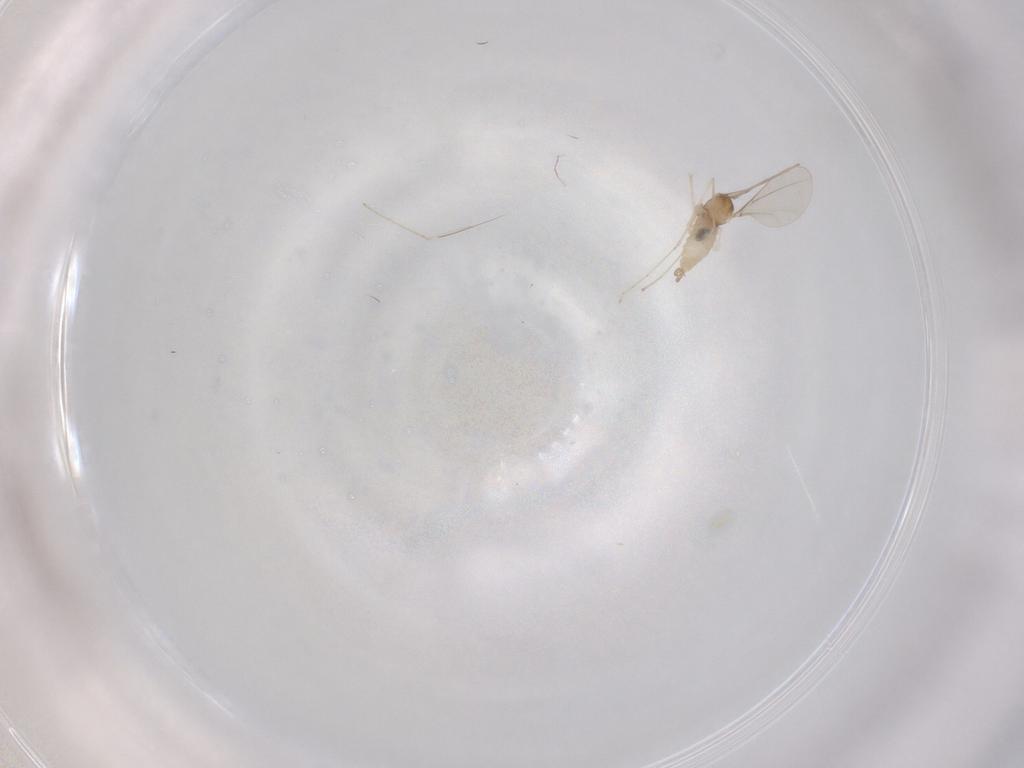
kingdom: Animalia
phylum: Arthropoda
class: Insecta
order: Diptera
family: Cecidomyiidae
